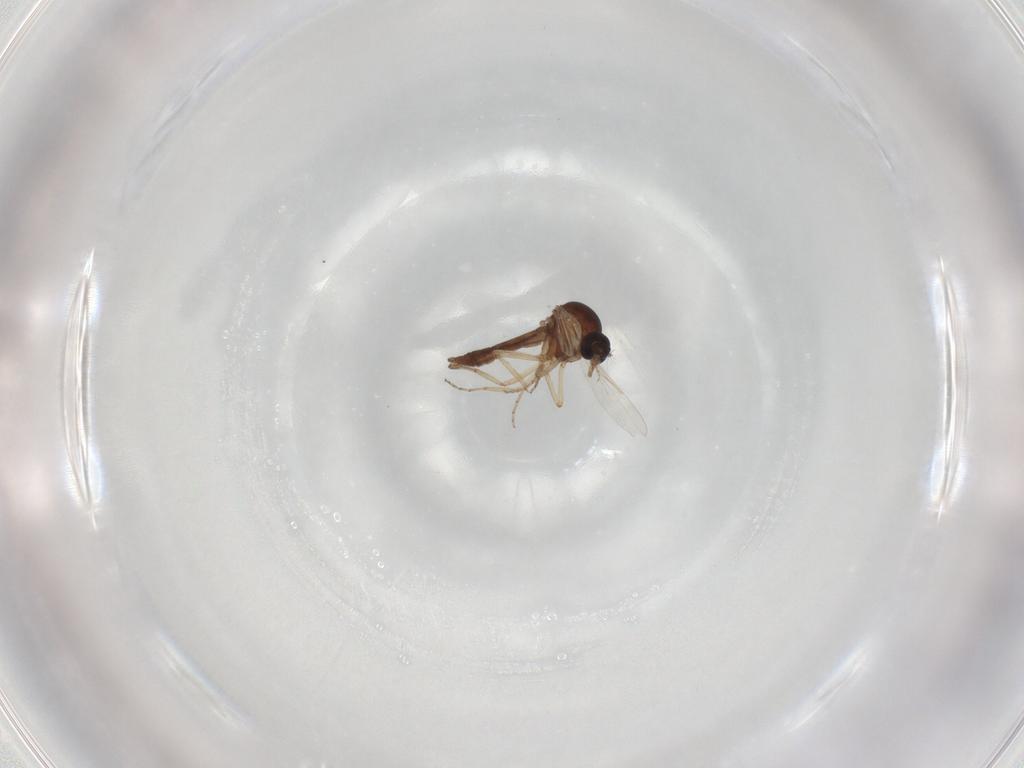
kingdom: Animalia
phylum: Arthropoda
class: Insecta
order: Diptera
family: Ceratopogonidae
